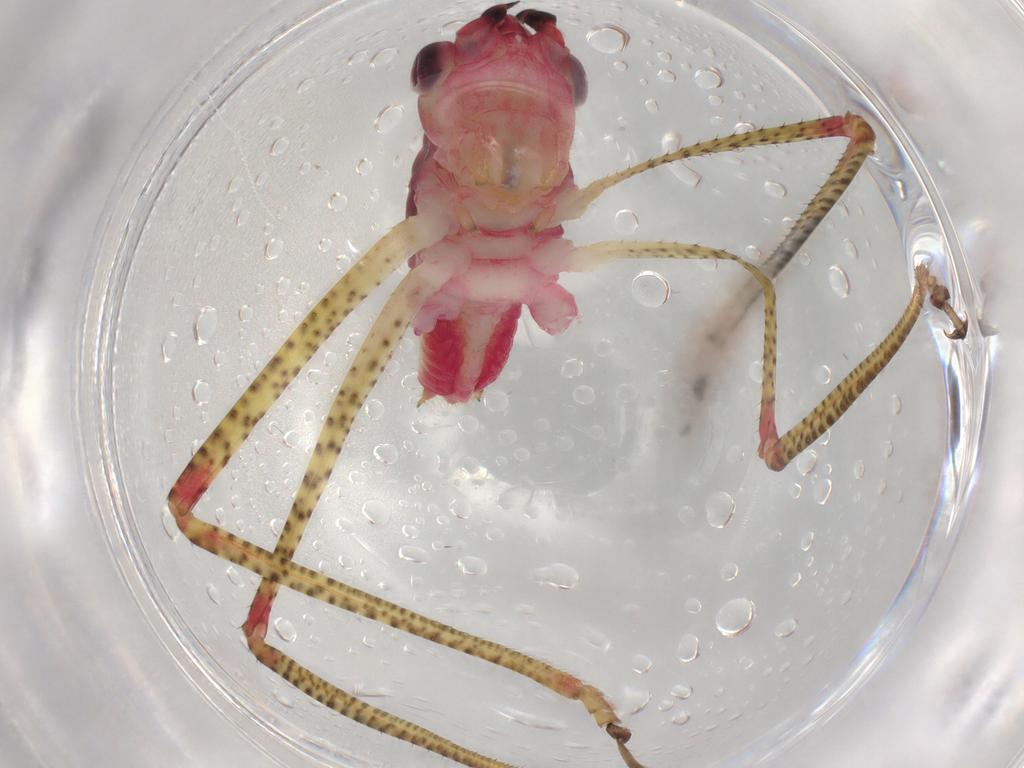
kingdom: Animalia
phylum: Arthropoda
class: Insecta
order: Orthoptera
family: Tettigoniidae
